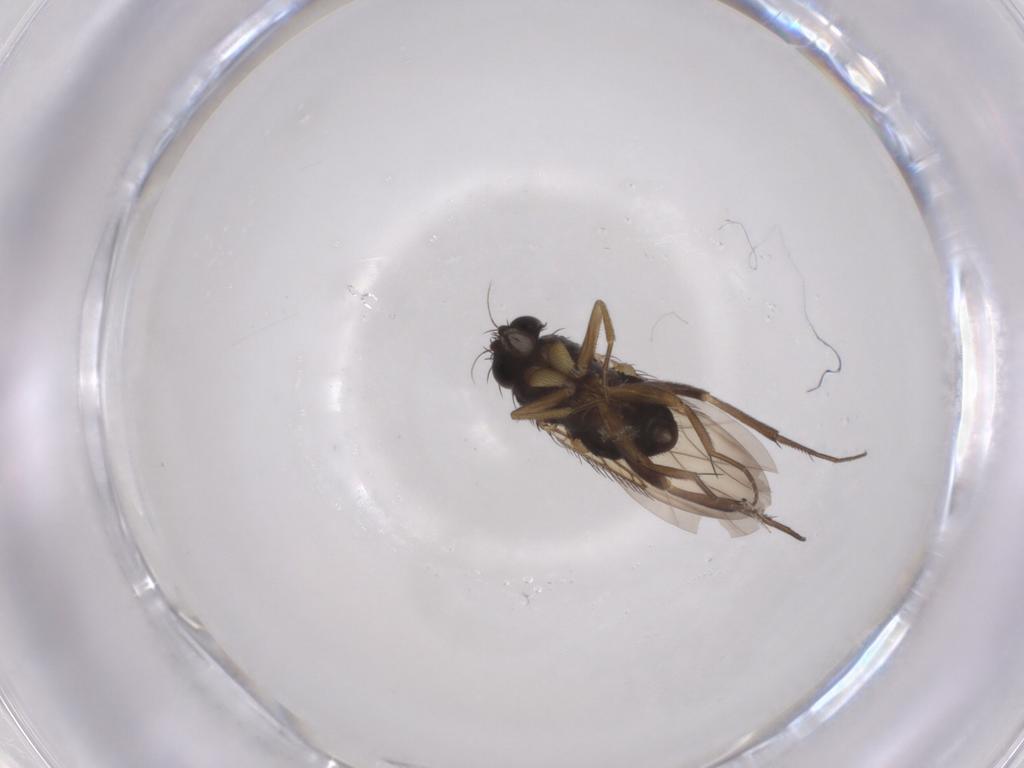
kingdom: Animalia
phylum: Arthropoda
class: Insecta
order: Diptera
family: Phoridae
